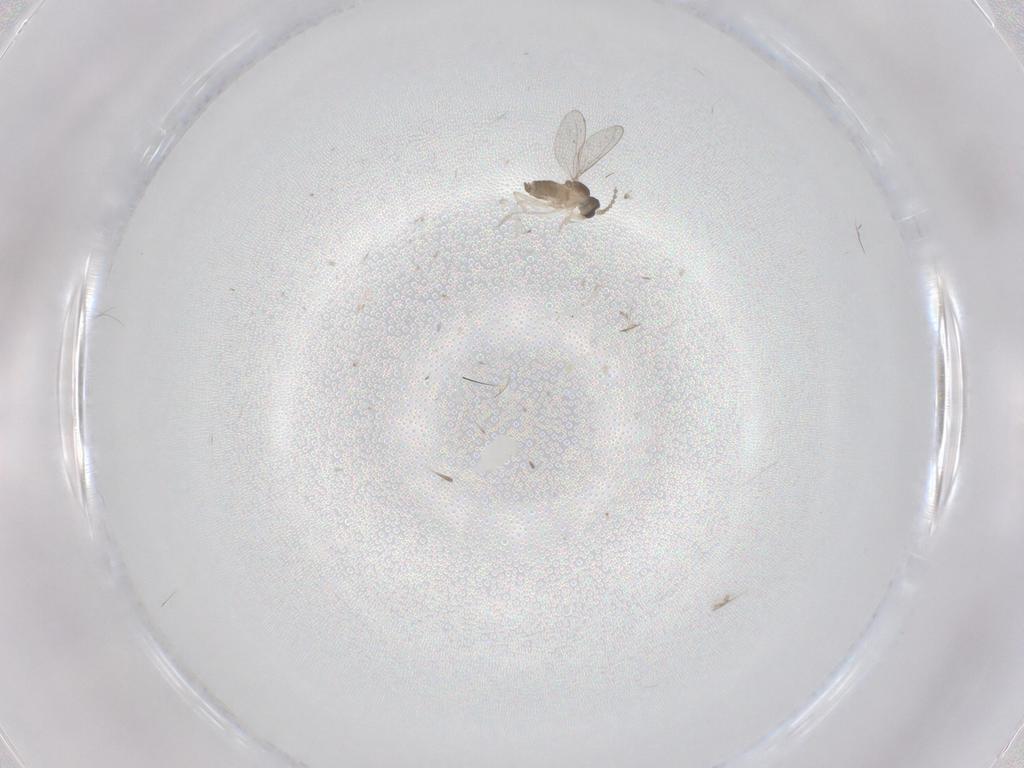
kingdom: Animalia
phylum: Arthropoda
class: Insecta
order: Diptera
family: Cecidomyiidae
